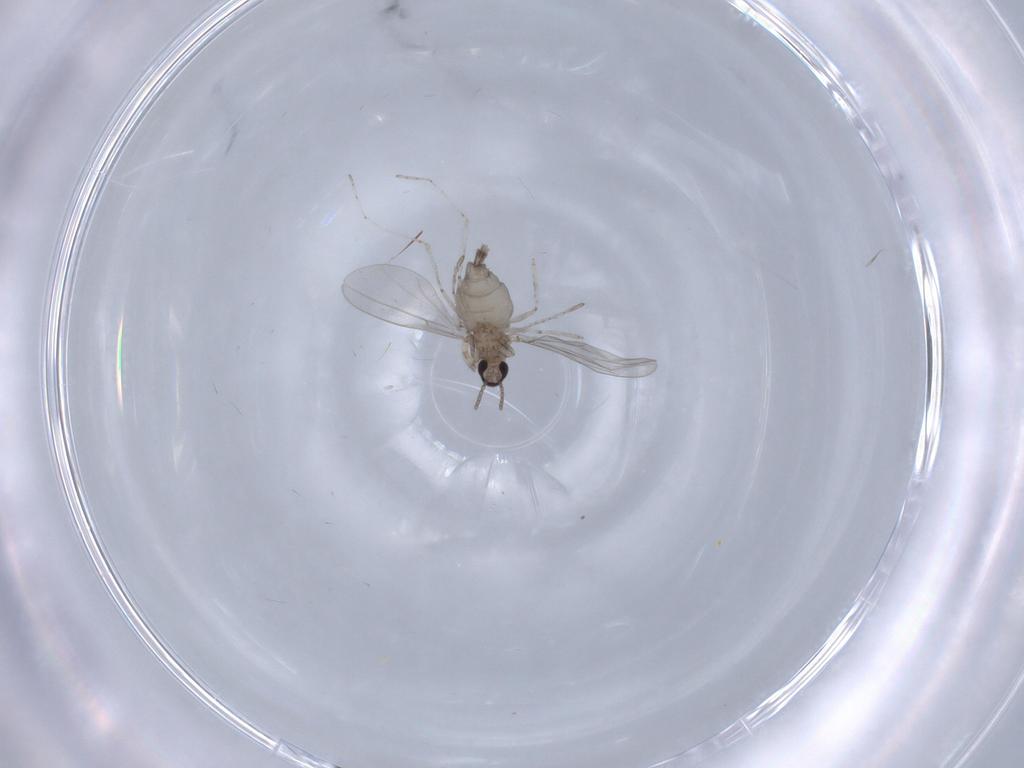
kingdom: Animalia
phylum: Arthropoda
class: Insecta
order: Diptera
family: Cecidomyiidae
